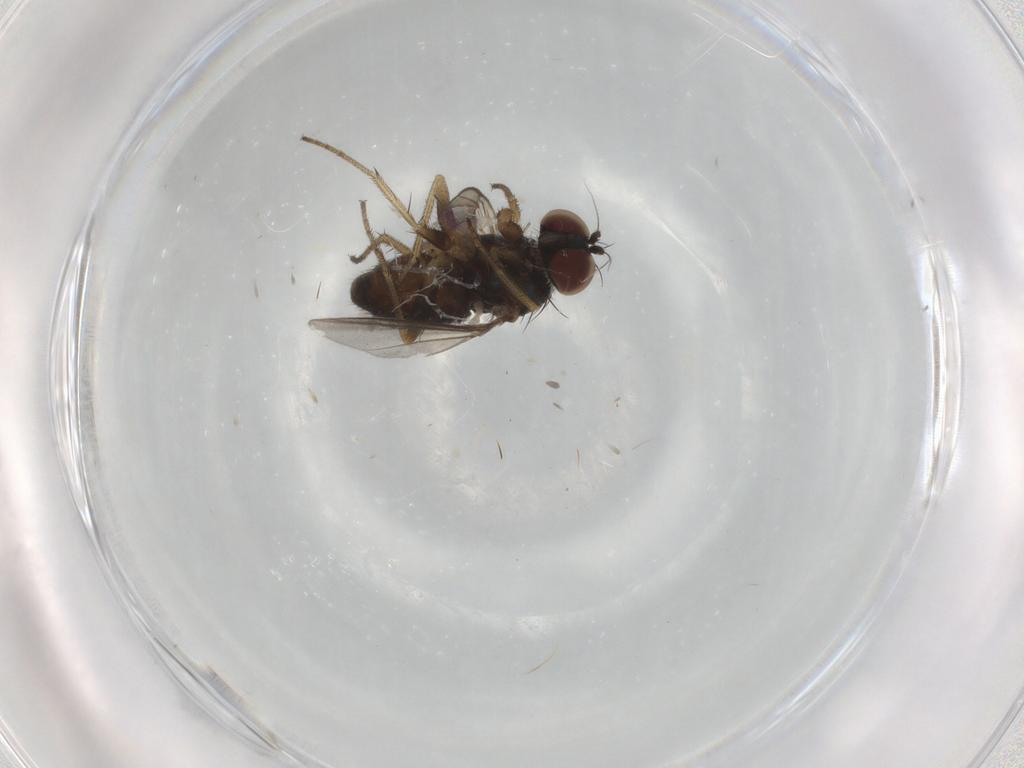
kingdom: Animalia
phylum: Arthropoda
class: Insecta
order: Diptera
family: Dolichopodidae
